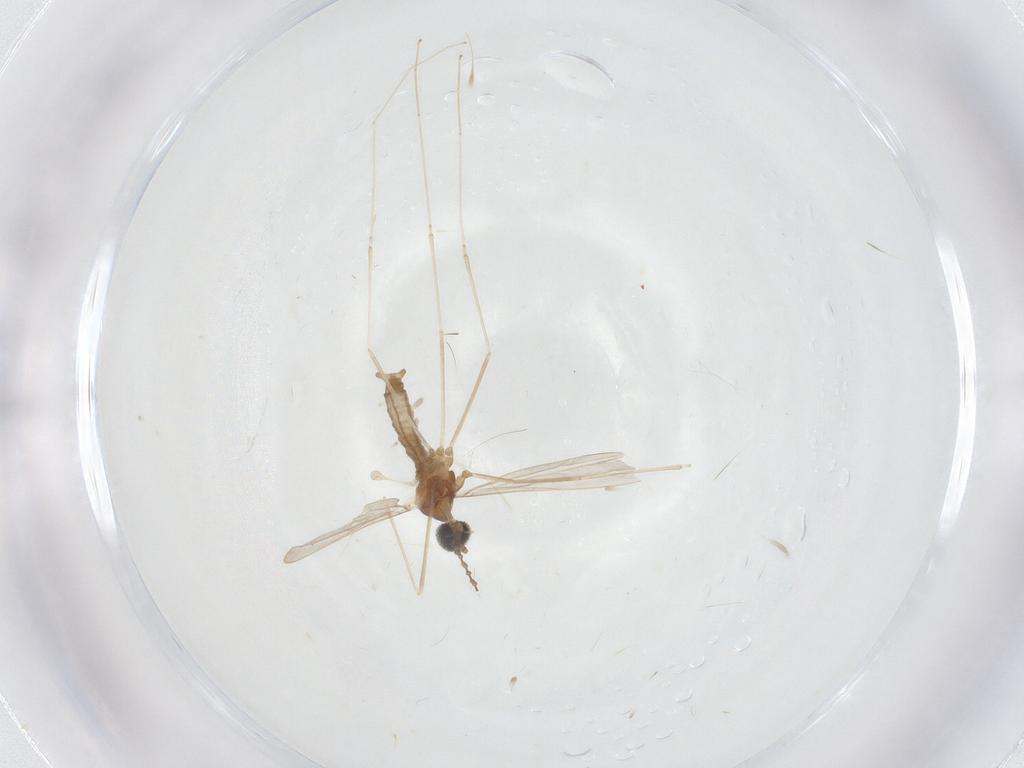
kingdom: Animalia
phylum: Arthropoda
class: Insecta
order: Diptera
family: Cecidomyiidae
